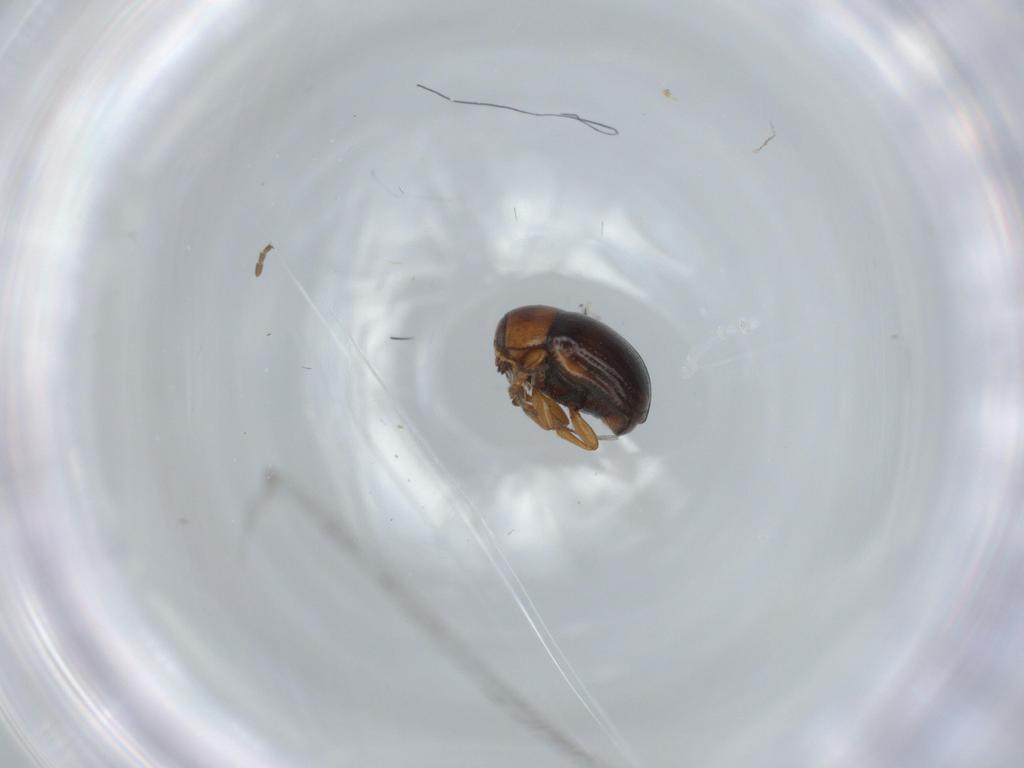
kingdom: Animalia
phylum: Arthropoda
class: Insecta
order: Coleoptera
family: Chrysomelidae
